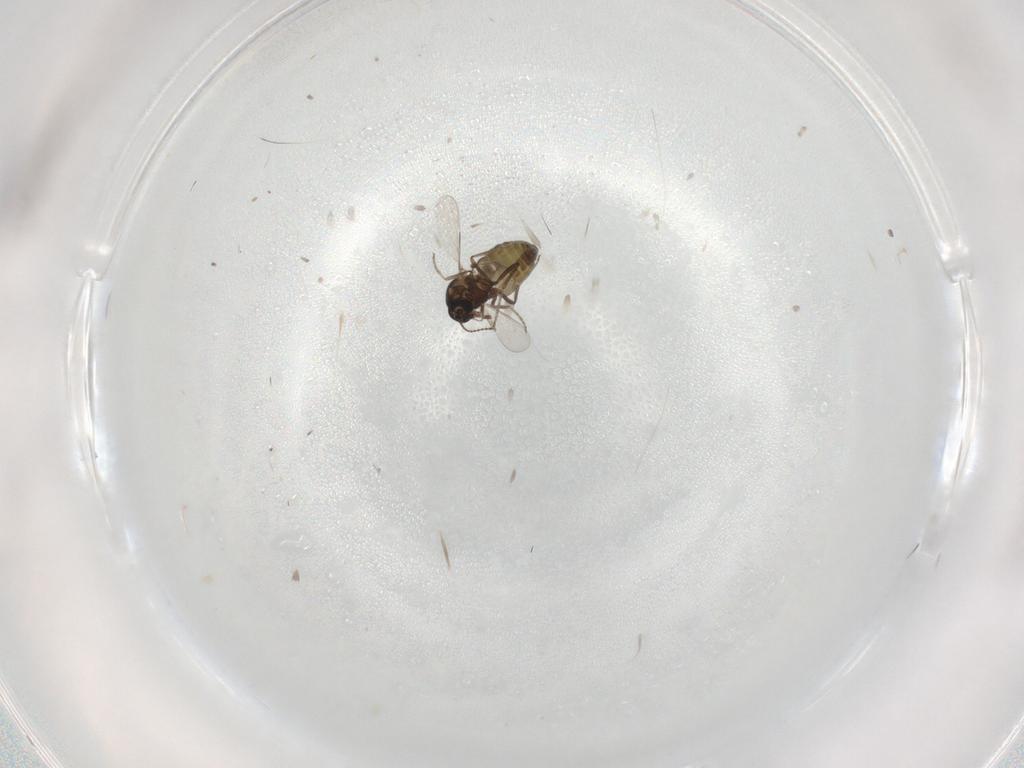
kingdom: Animalia
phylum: Arthropoda
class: Insecta
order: Diptera
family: Ceratopogonidae
